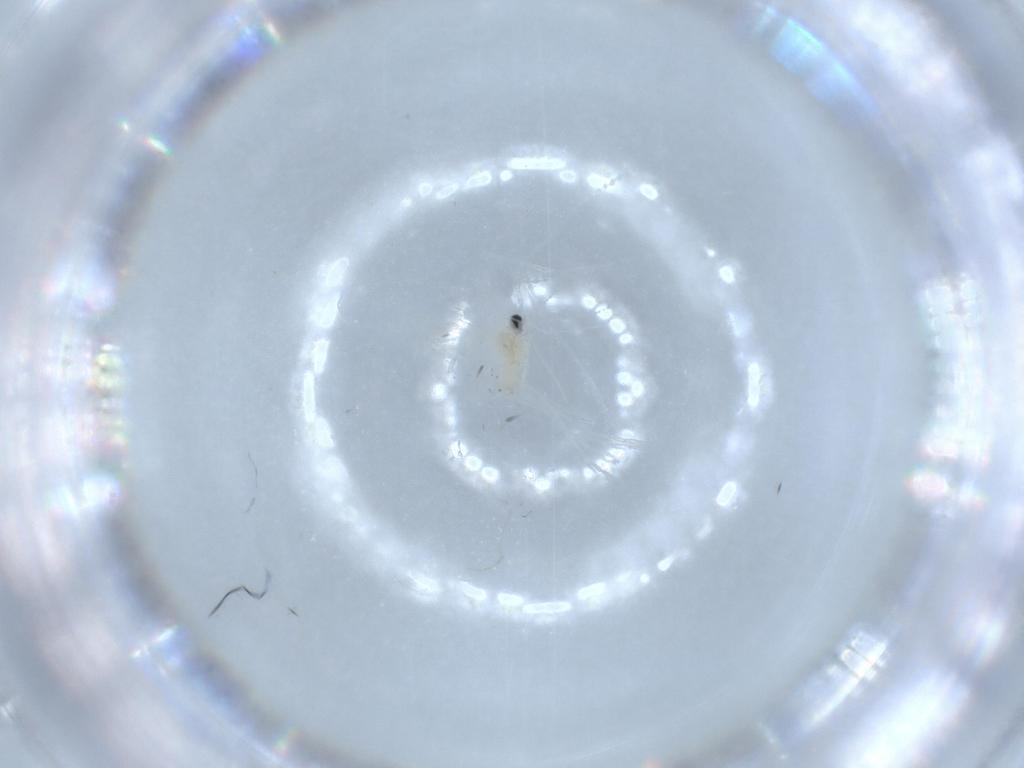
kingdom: Animalia
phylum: Arthropoda
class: Insecta
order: Diptera
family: Cecidomyiidae
